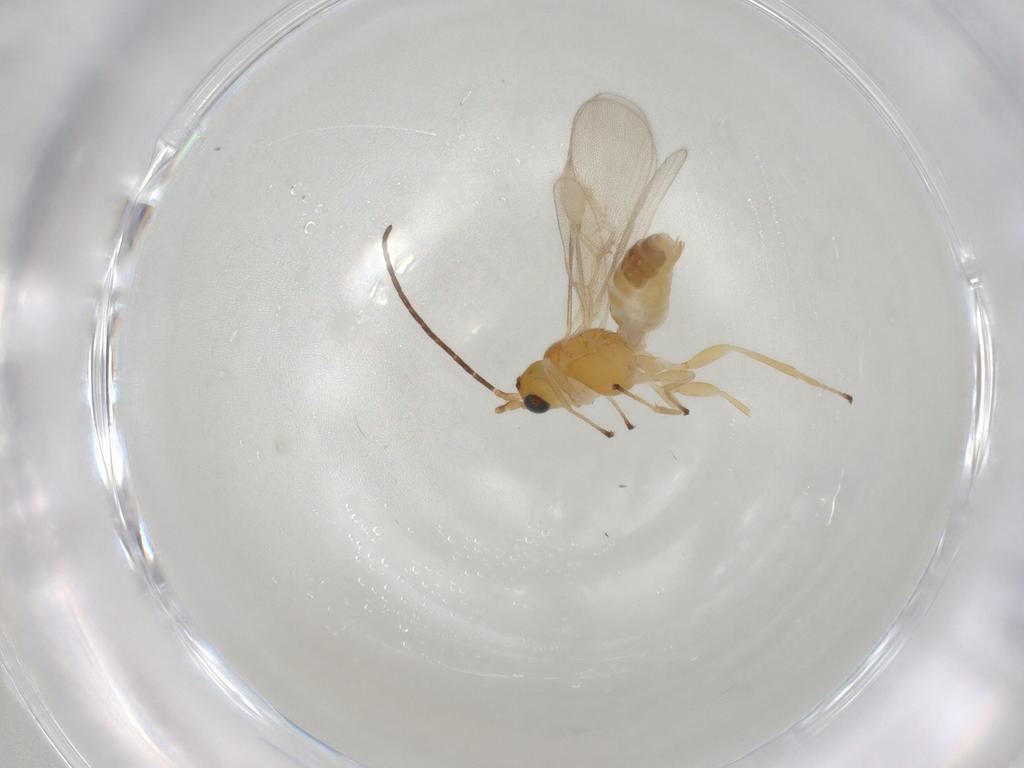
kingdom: Animalia
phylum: Arthropoda
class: Insecta
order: Hymenoptera
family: Braconidae
